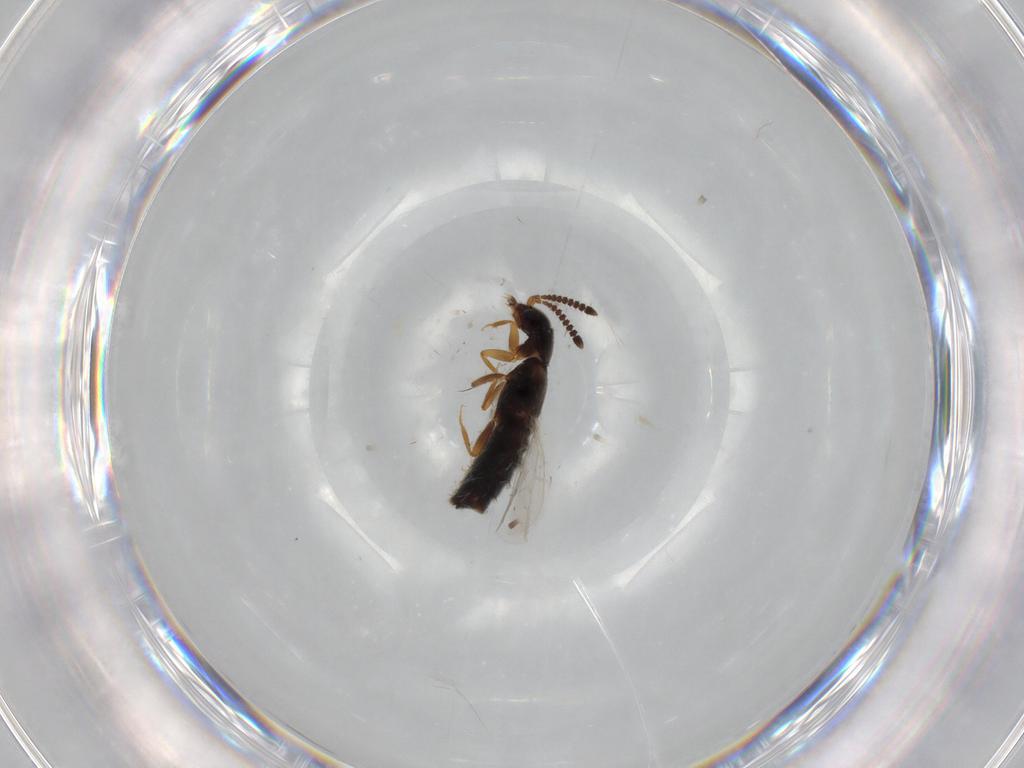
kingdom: Animalia
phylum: Arthropoda
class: Insecta
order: Coleoptera
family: Staphylinidae
